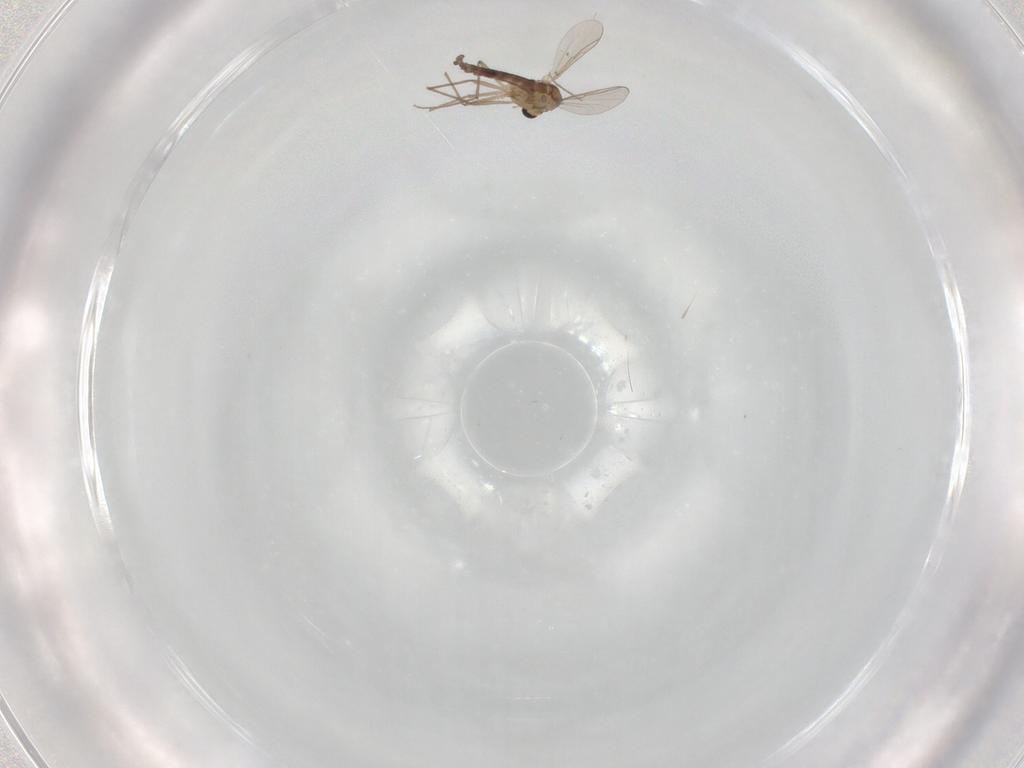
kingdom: Animalia
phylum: Arthropoda
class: Insecta
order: Diptera
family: Chironomidae
